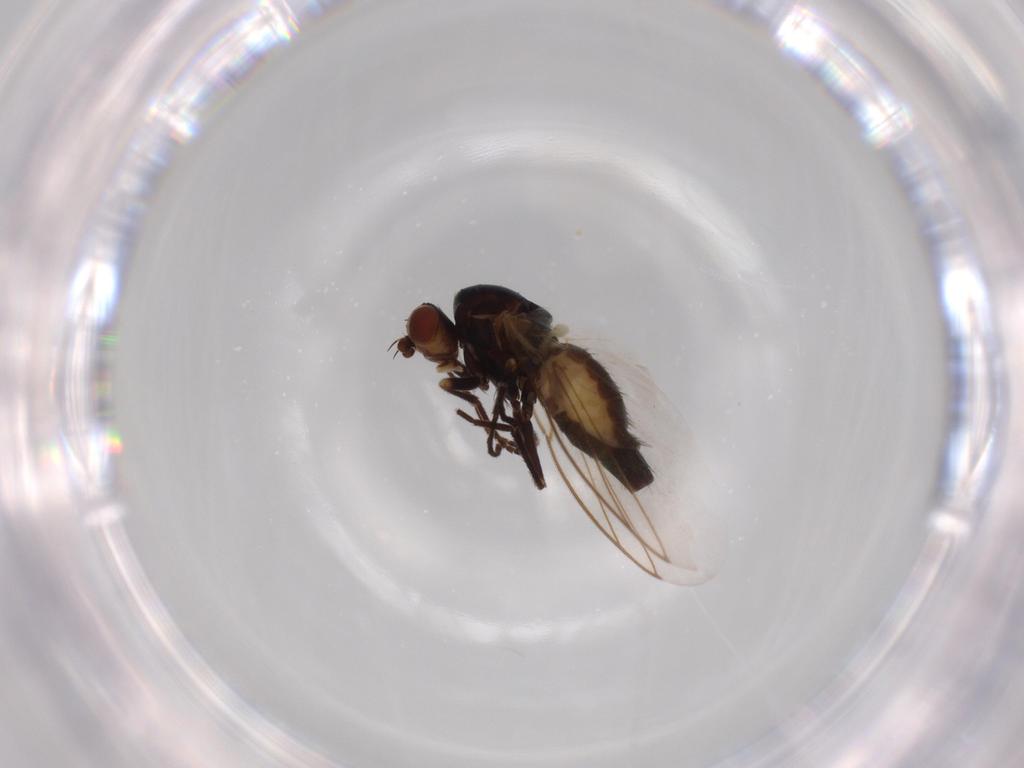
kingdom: Animalia
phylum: Arthropoda
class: Insecta
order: Diptera
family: Agromyzidae
